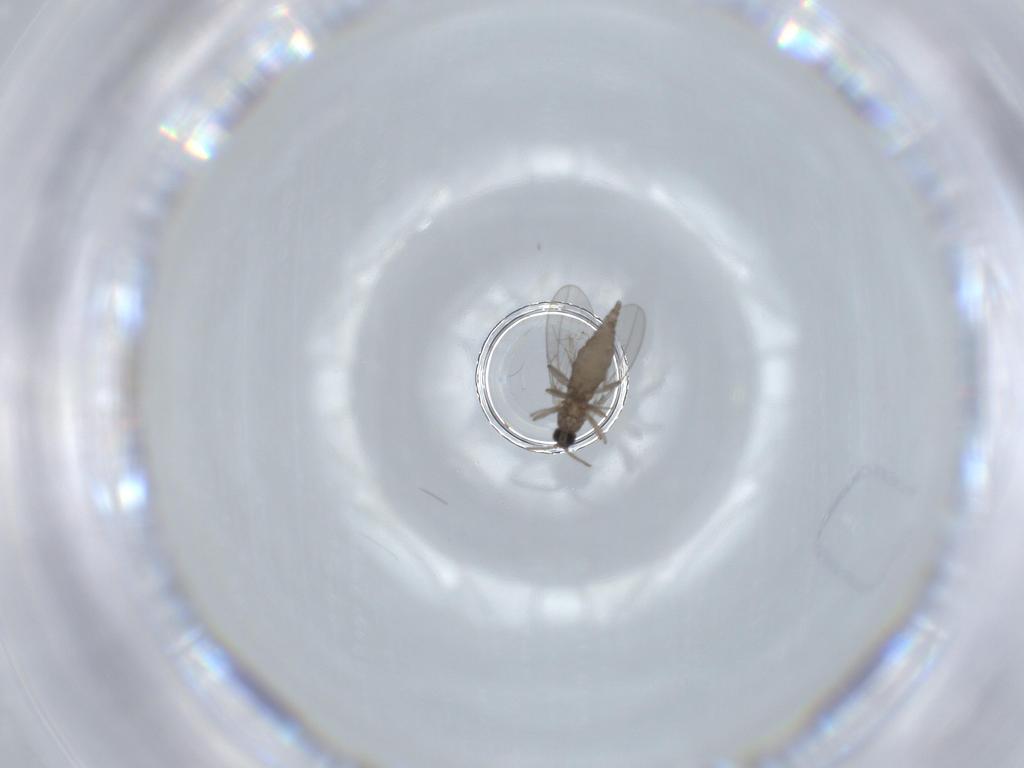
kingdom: Animalia
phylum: Arthropoda
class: Insecta
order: Diptera
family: Cecidomyiidae
